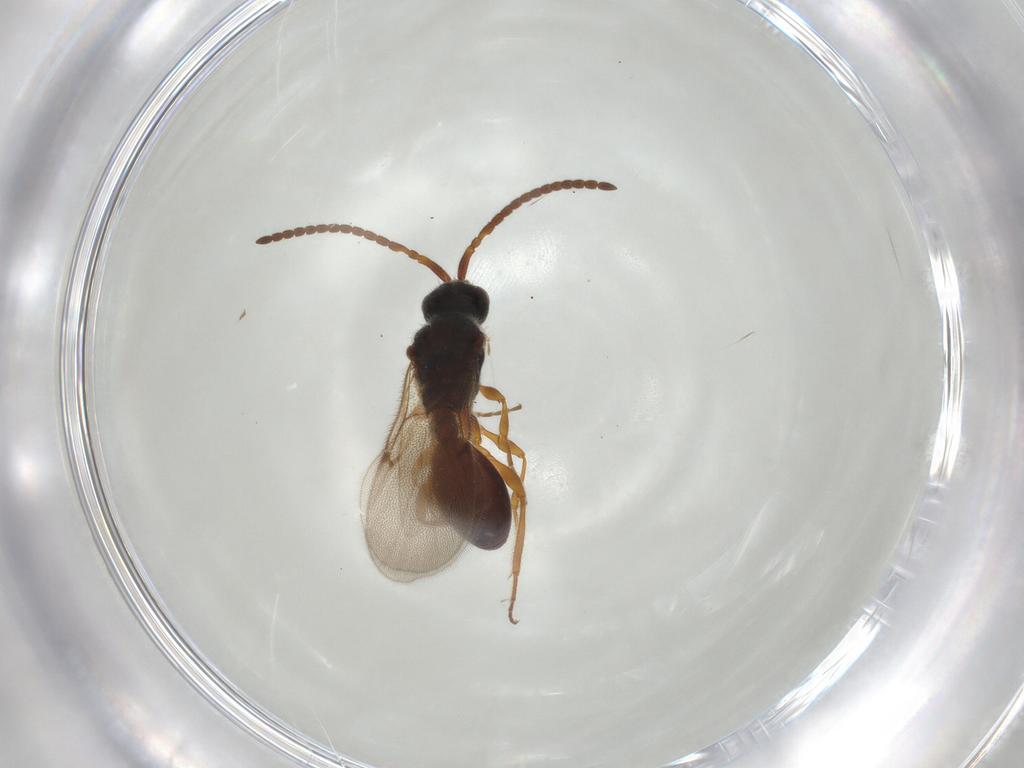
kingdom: Animalia
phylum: Arthropoda
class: Insecta
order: Hymenoptera
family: Diapriidae
